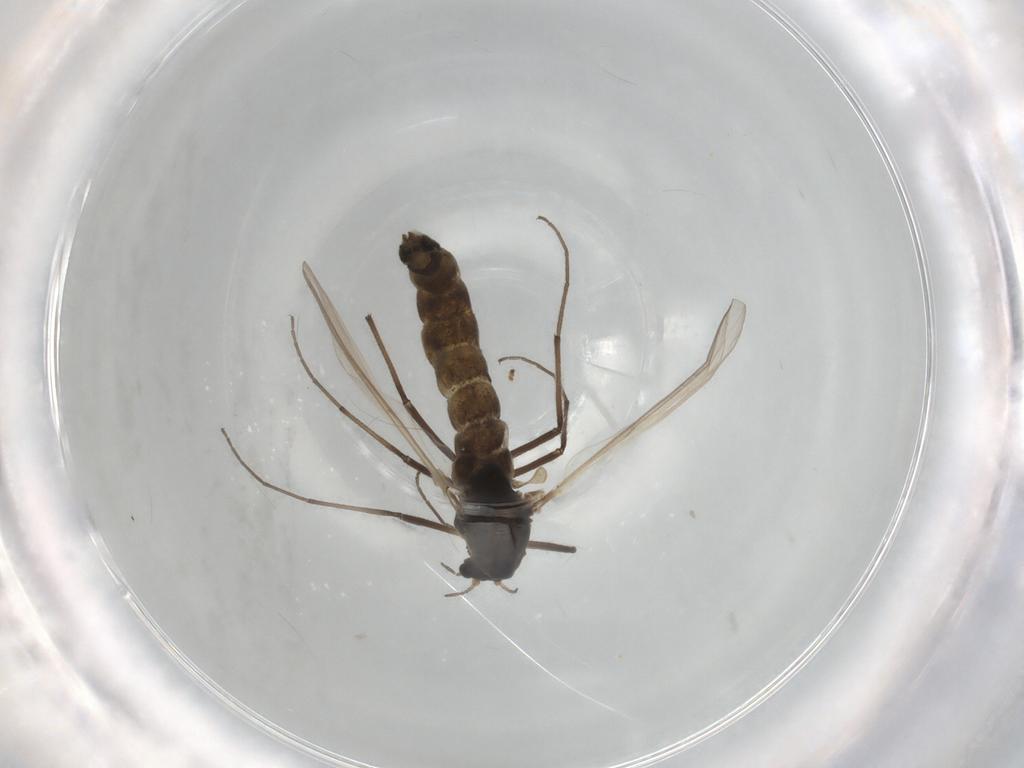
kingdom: Animalia
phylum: Arthropoda
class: Insecta
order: Diptera
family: Chironomidae
